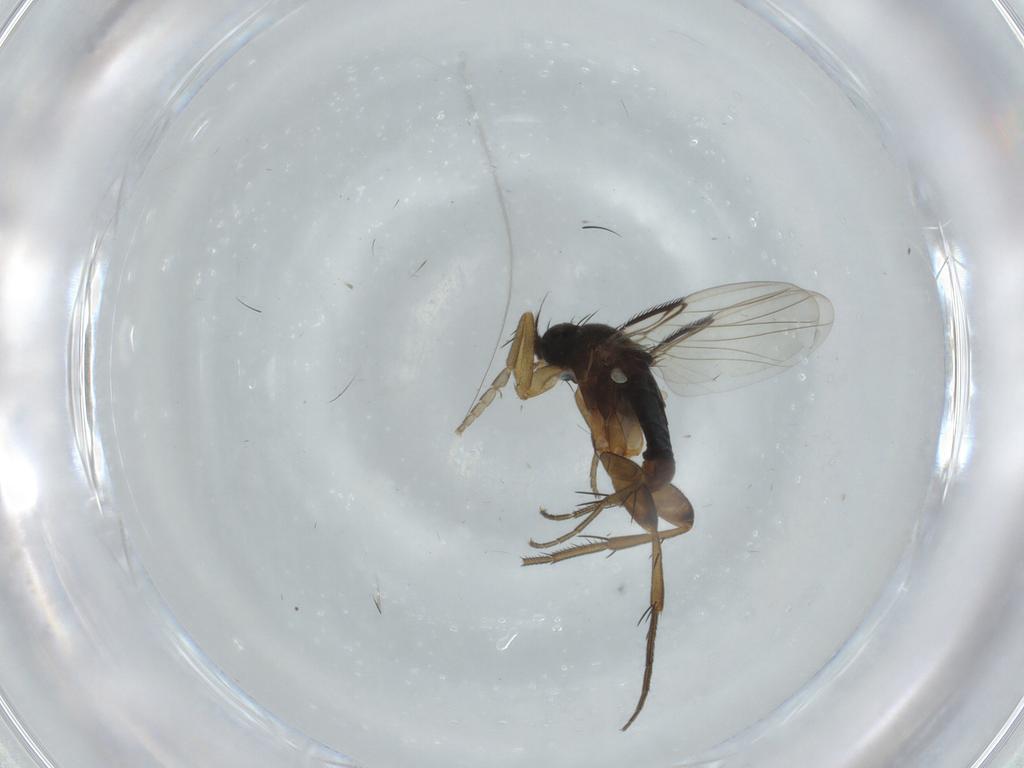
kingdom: Animalia
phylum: Arthropoda
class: Insecta
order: Diptera
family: Phoridae
